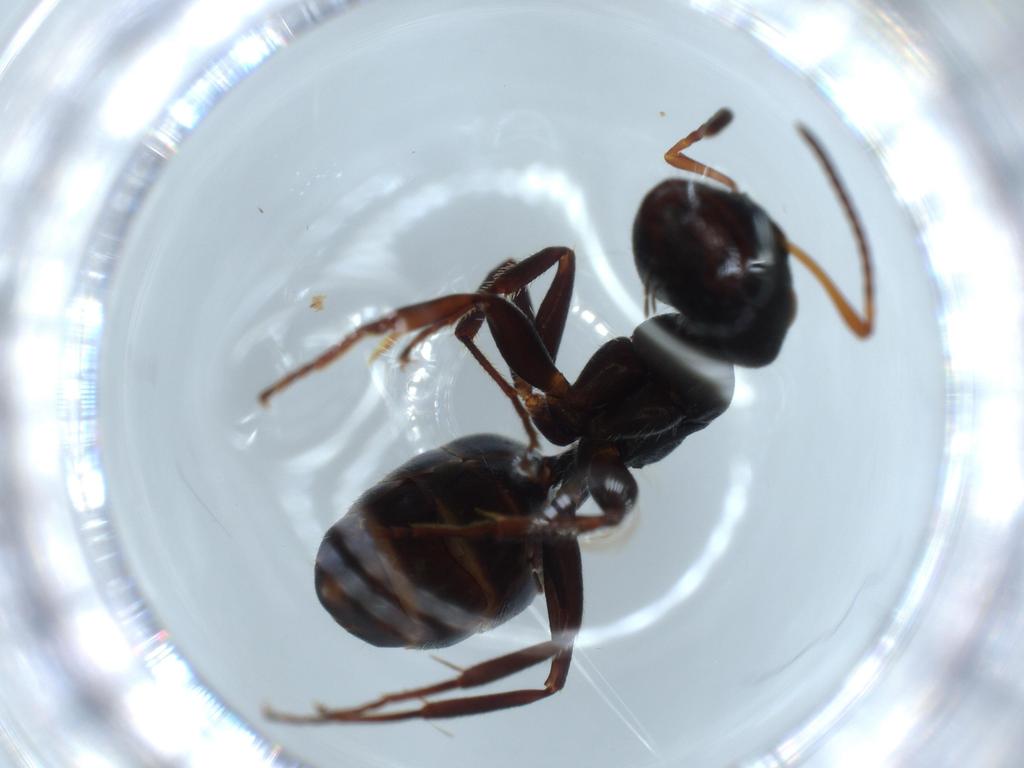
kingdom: Animalia
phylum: Arthropoda
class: Insecta
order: Hymenoptera
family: Formicidae
